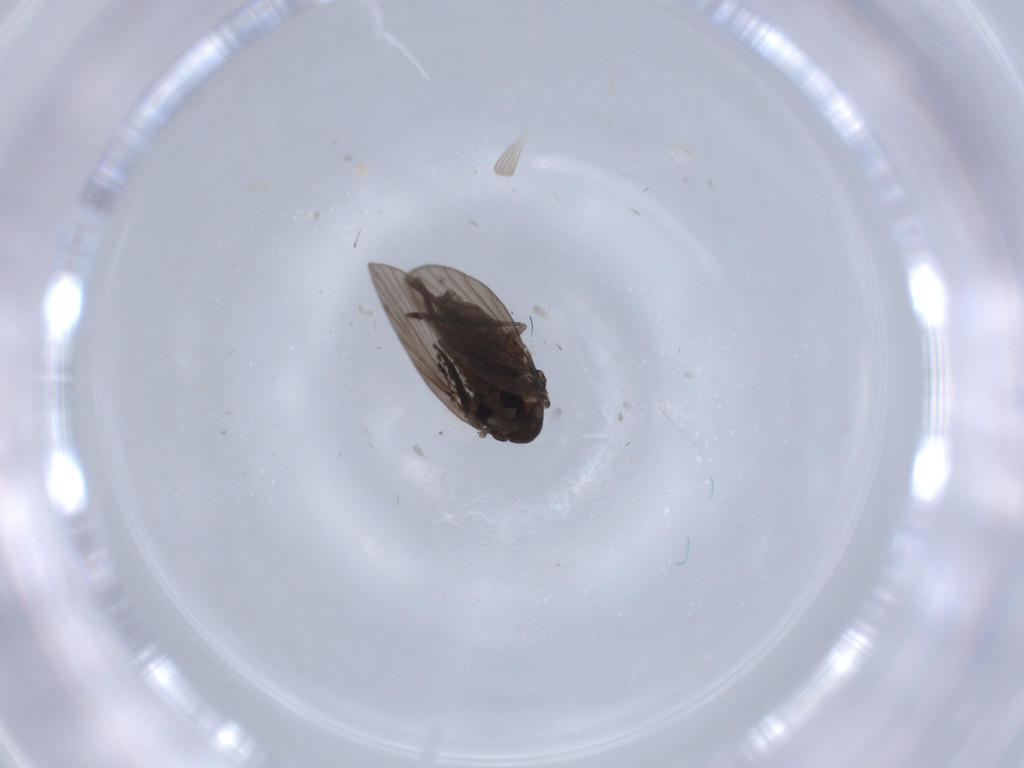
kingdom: Animalia
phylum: Arthropoda
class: Insecta
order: Diptera
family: Psychodidae
